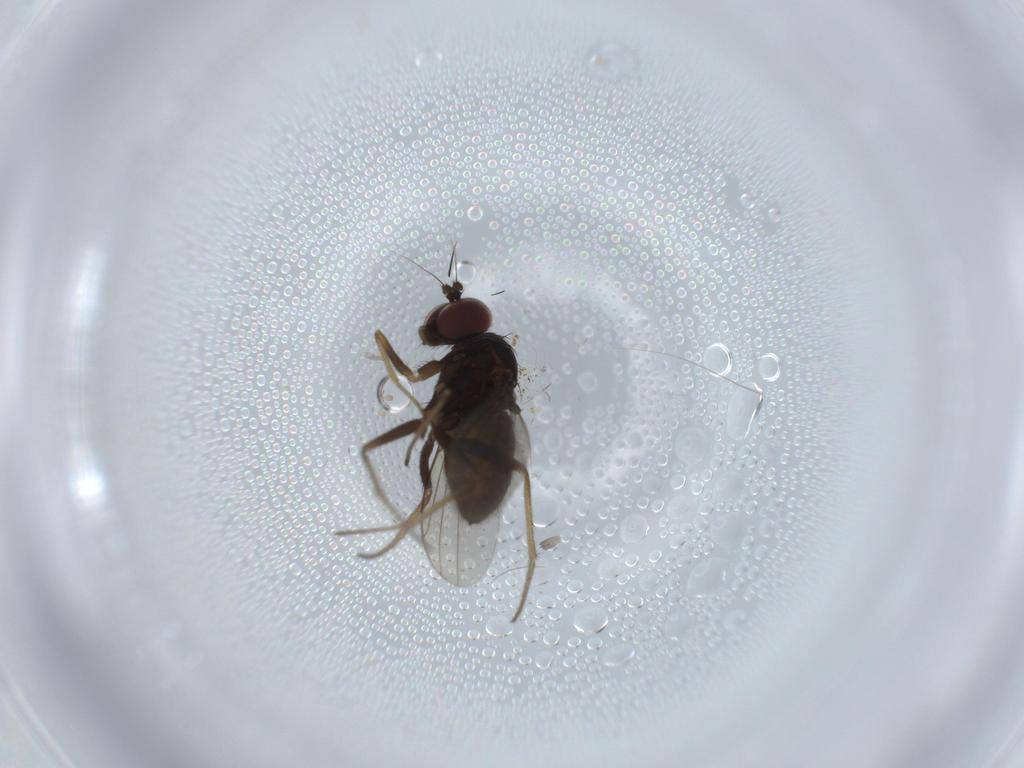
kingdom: Animalia
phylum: Arthropoda
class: Insecta
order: Diptera
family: Dolichopodidae
